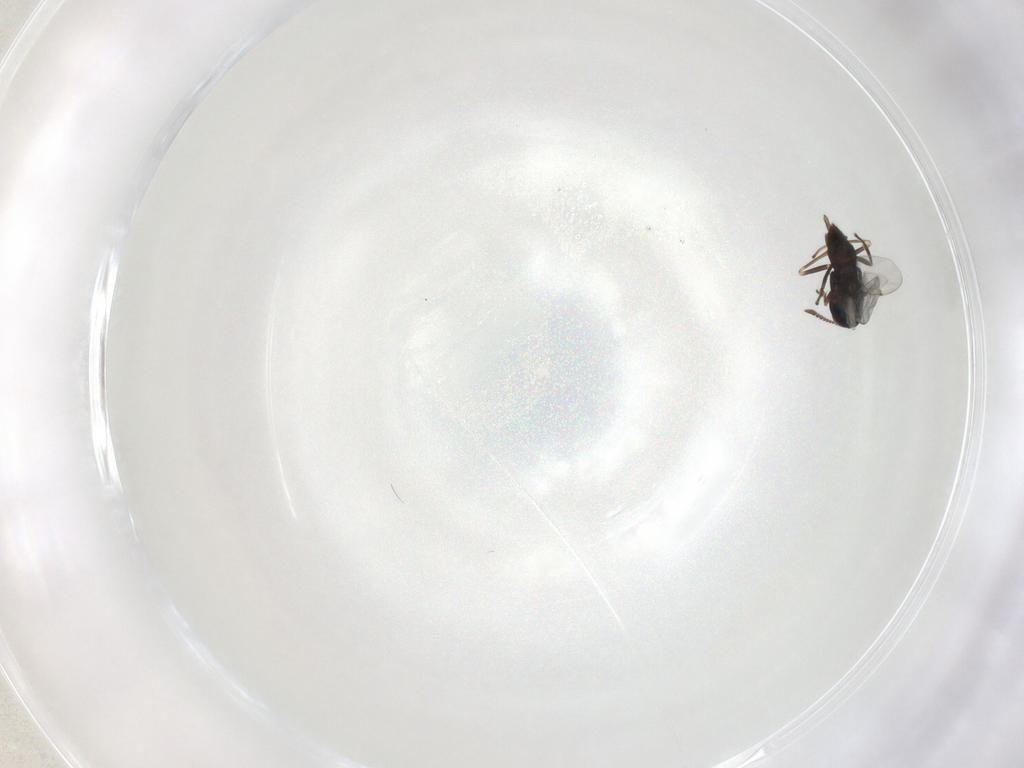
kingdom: Animalia
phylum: Arthropoda
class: Insecta
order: Hymenoptera
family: Encyrtidae
